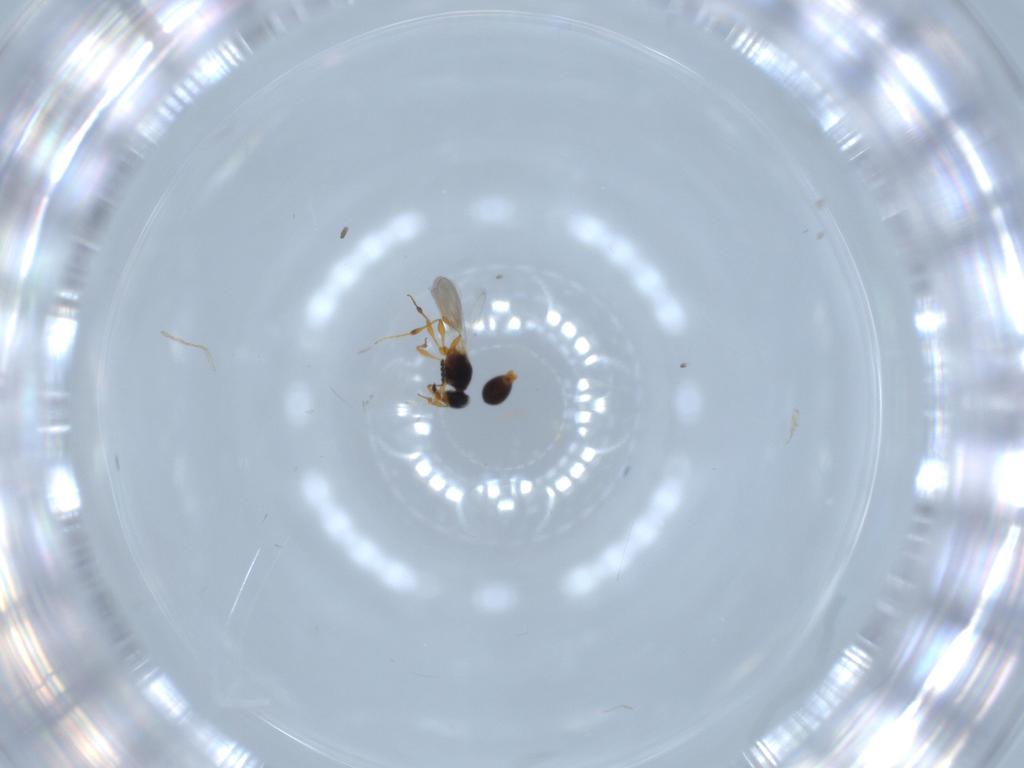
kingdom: Animalia
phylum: Arthropoda
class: Insecta
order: Hymenoptera
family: Platygastridae
